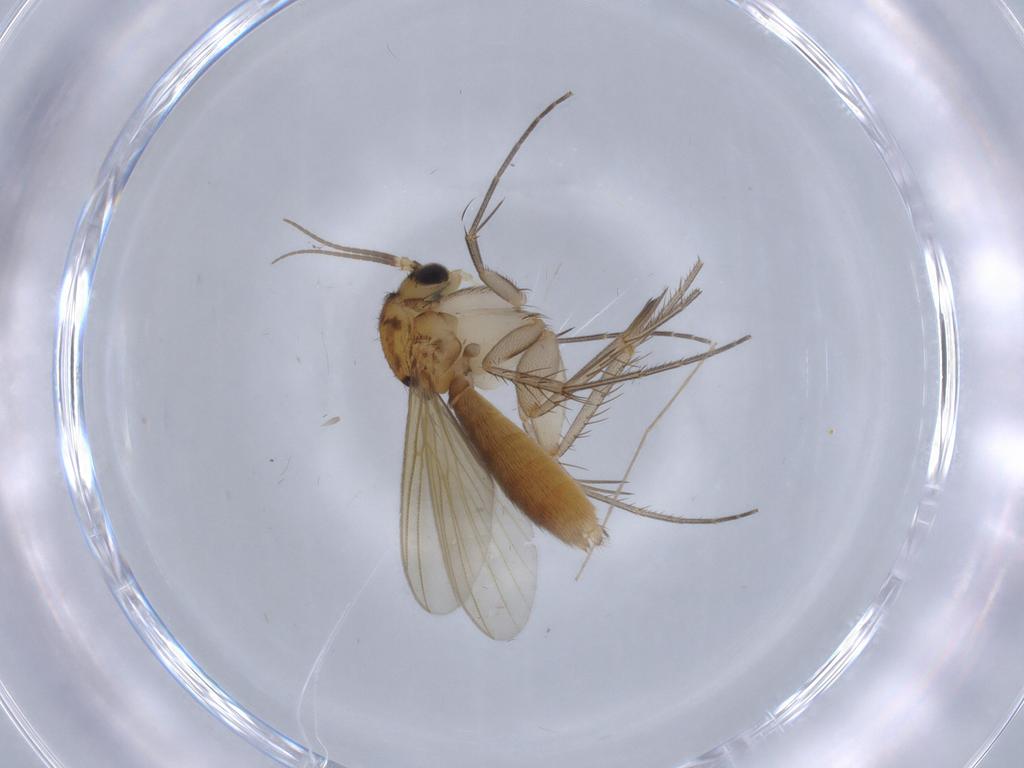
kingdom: Animalia
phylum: Arthropoda
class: Insecta
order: Diptera
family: Mycetophilidae
